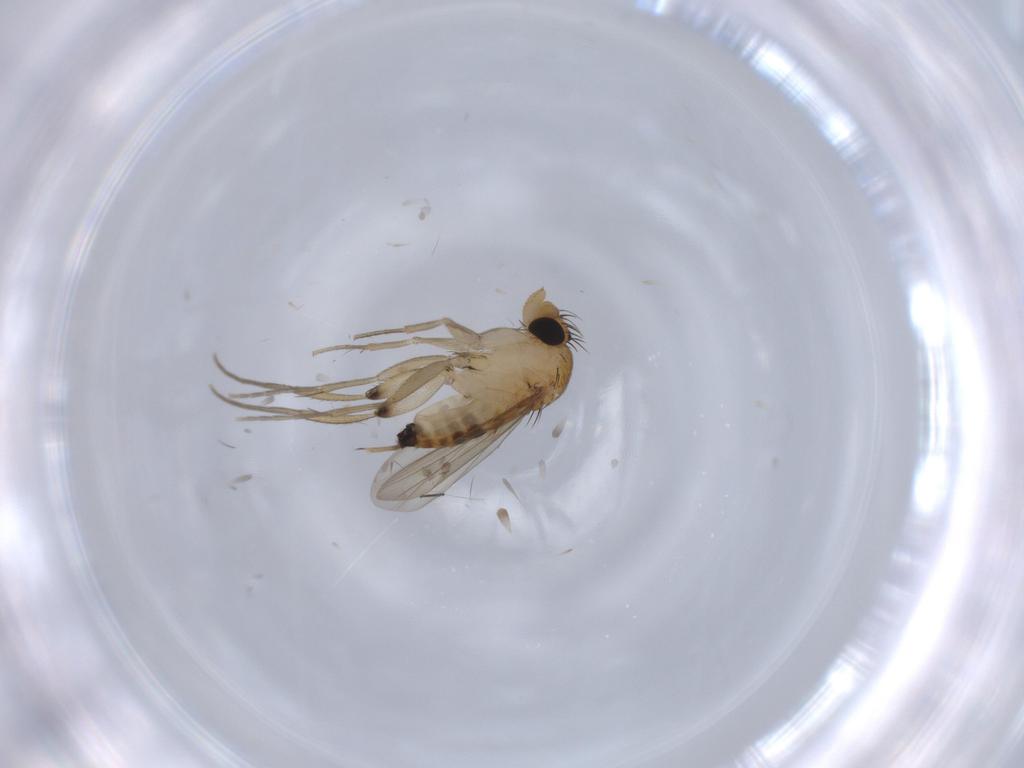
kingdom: Animalia
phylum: Arthropoda
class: Insecta
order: Diptera
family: Phoridae
